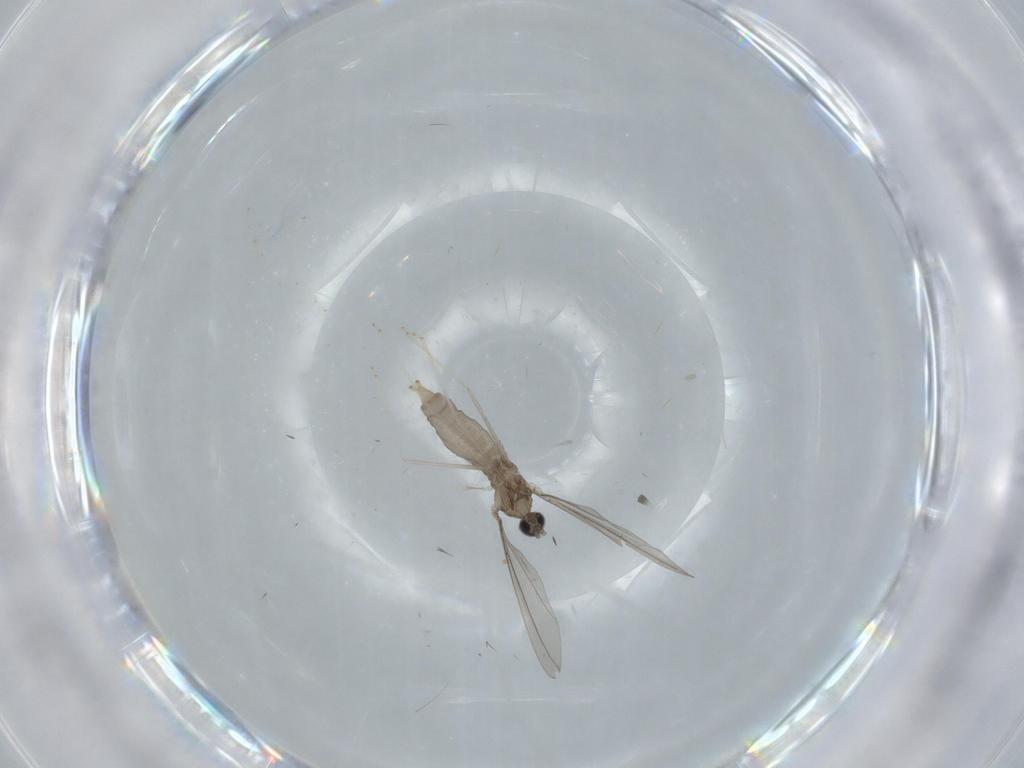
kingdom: Animalia
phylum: Arthropoda
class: Insecta
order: Diptera
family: Cecidomyiidae
